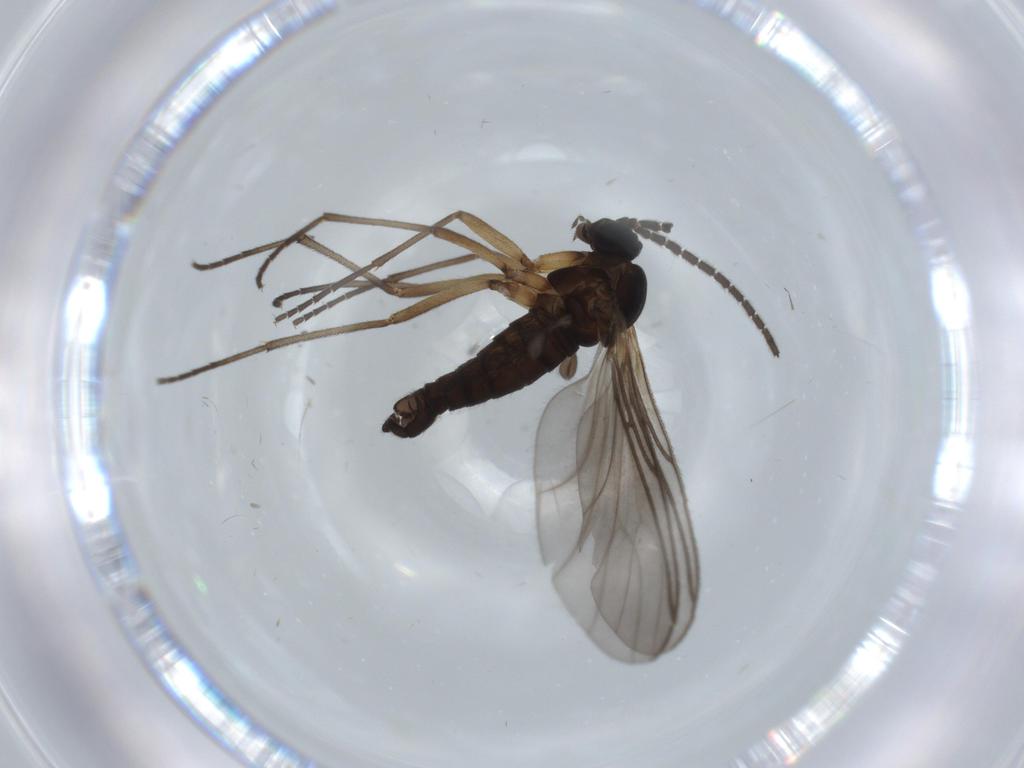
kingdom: Animalia
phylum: Arthropoda
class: Insecta
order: Diptera
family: Sciaridae
